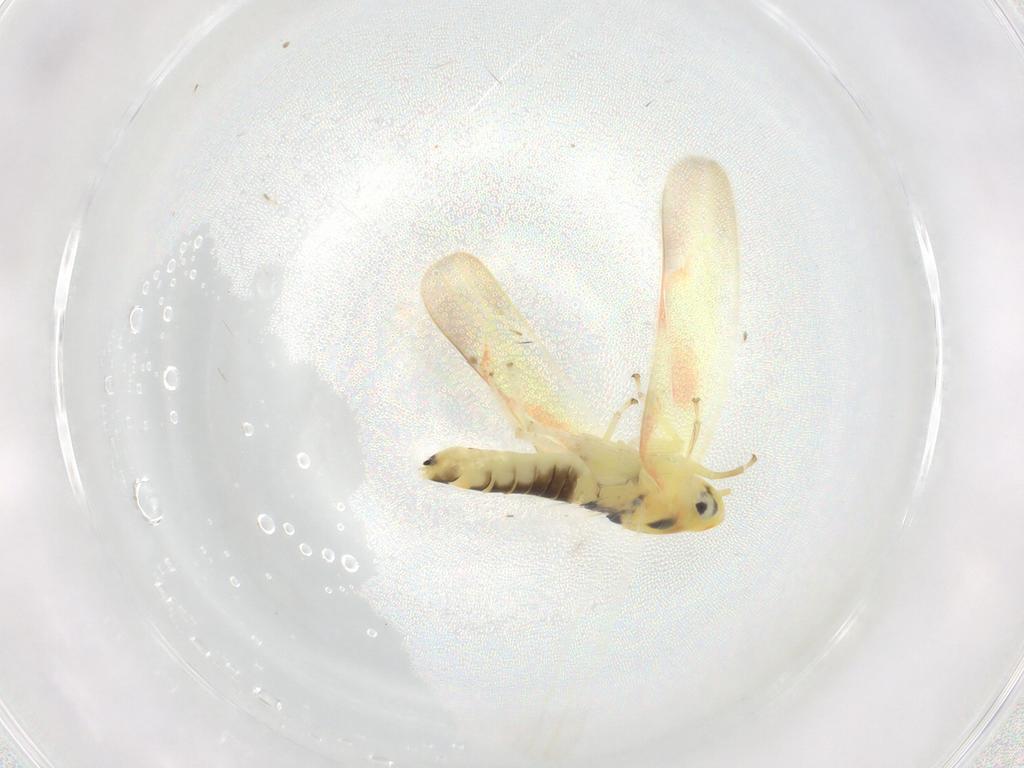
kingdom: Animalia
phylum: Arthropoda
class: Insecta
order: Hemiptera
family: Cicadellidae
